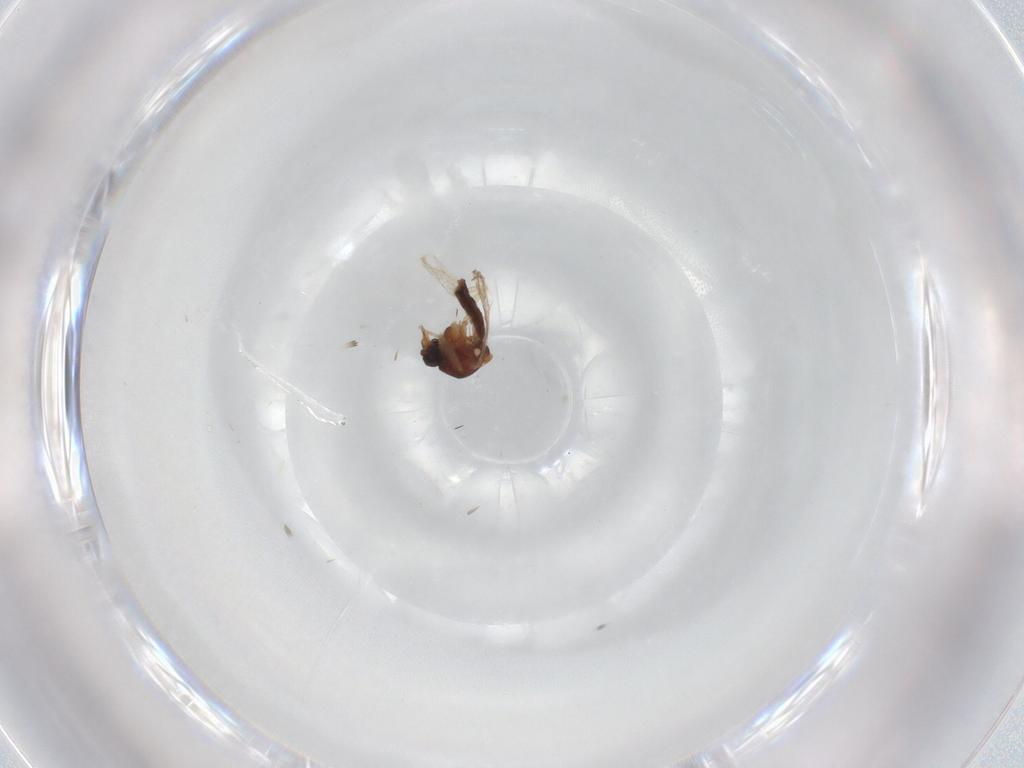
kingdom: Animalia
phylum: Arthropoda
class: Insecta
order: Diptera
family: Ceratopogonidae
